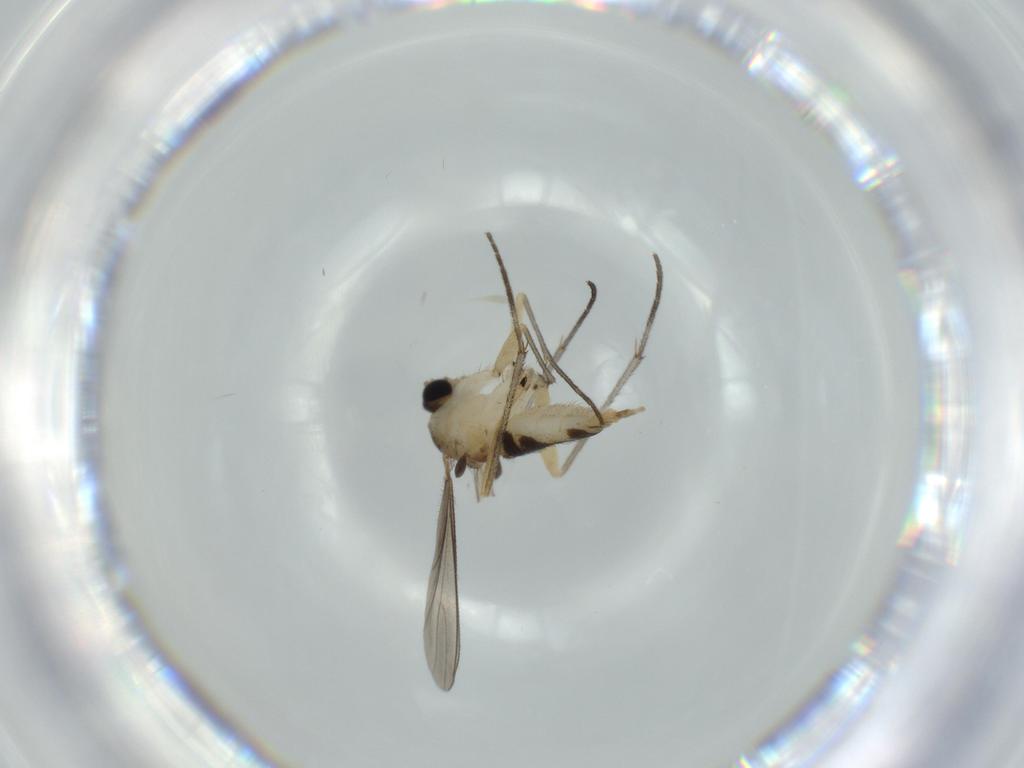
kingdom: Animalia
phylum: Arthropoda
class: Insecta
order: Diptera
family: Sciaridae
